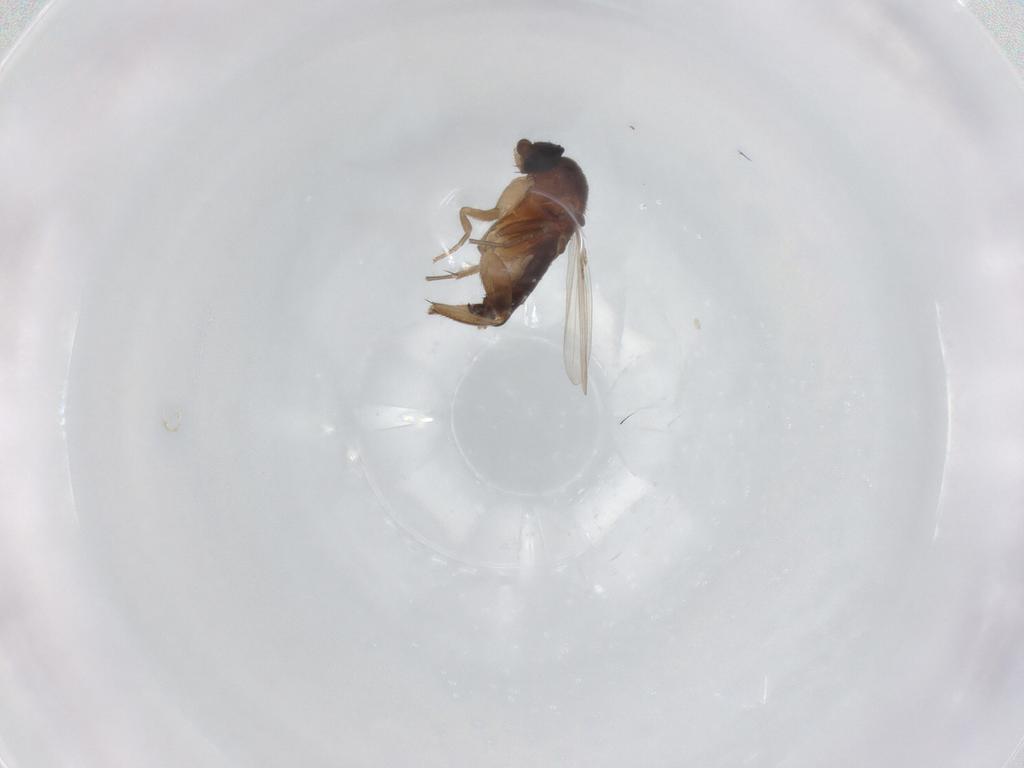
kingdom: Animalia
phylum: Arthropoda
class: Insecta
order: Diptera
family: Phoridae
